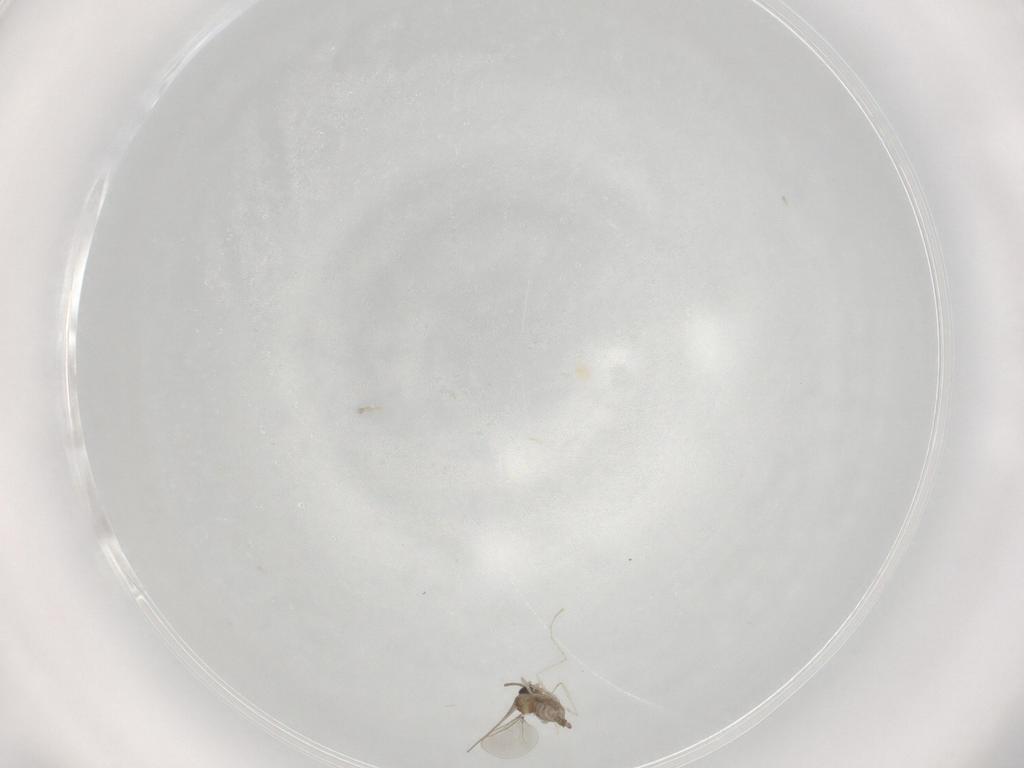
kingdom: Animalia
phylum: Arthropoda
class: Insecta
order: Diptera
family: Cecidomyiidae
